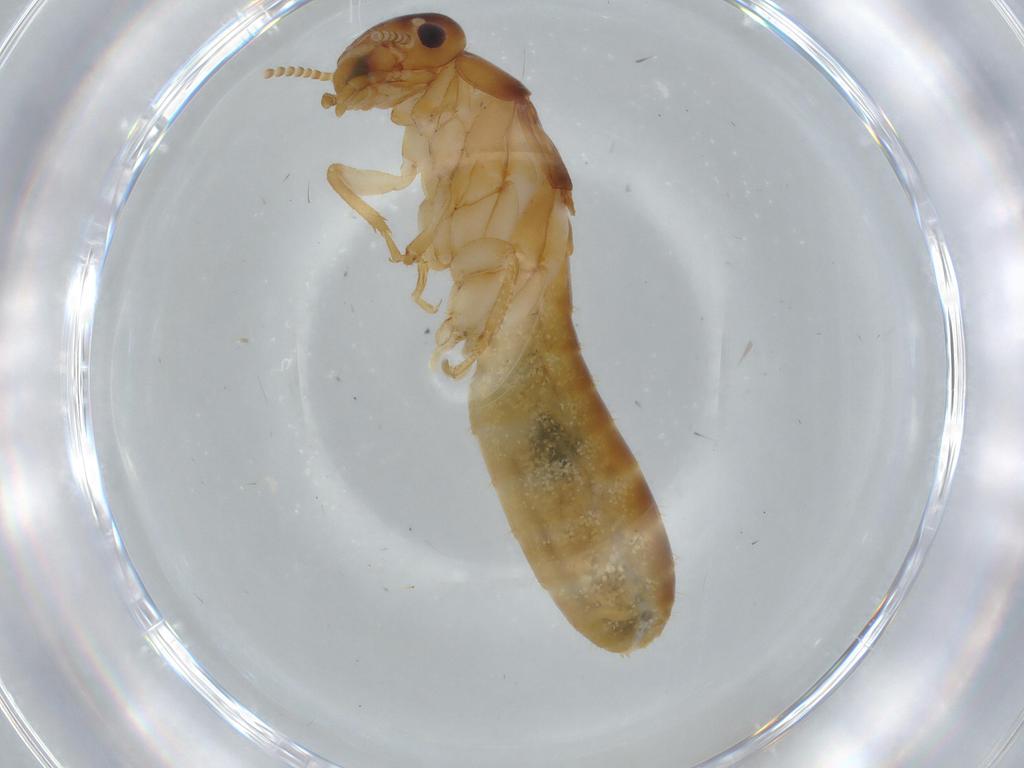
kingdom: Animalia
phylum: Arthropoda
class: Insecta
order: Blattodea
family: Kalotermitidae
